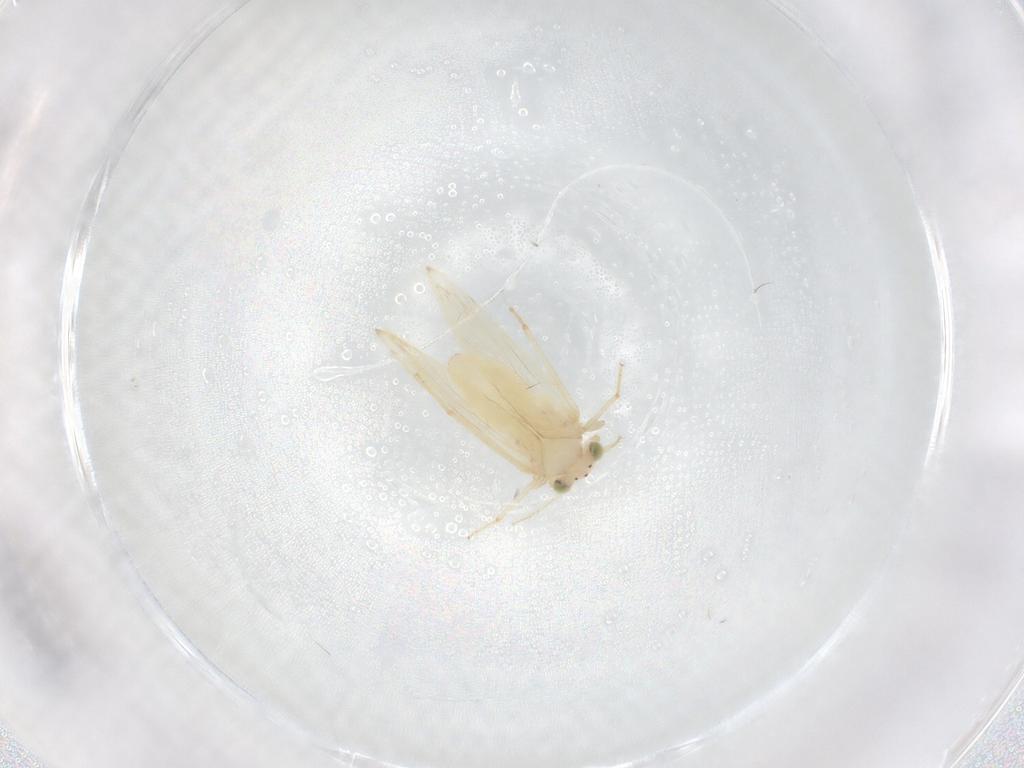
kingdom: Animalia
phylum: Arthropoda
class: Insecta
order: Psocodea
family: Lepidopsocidae
